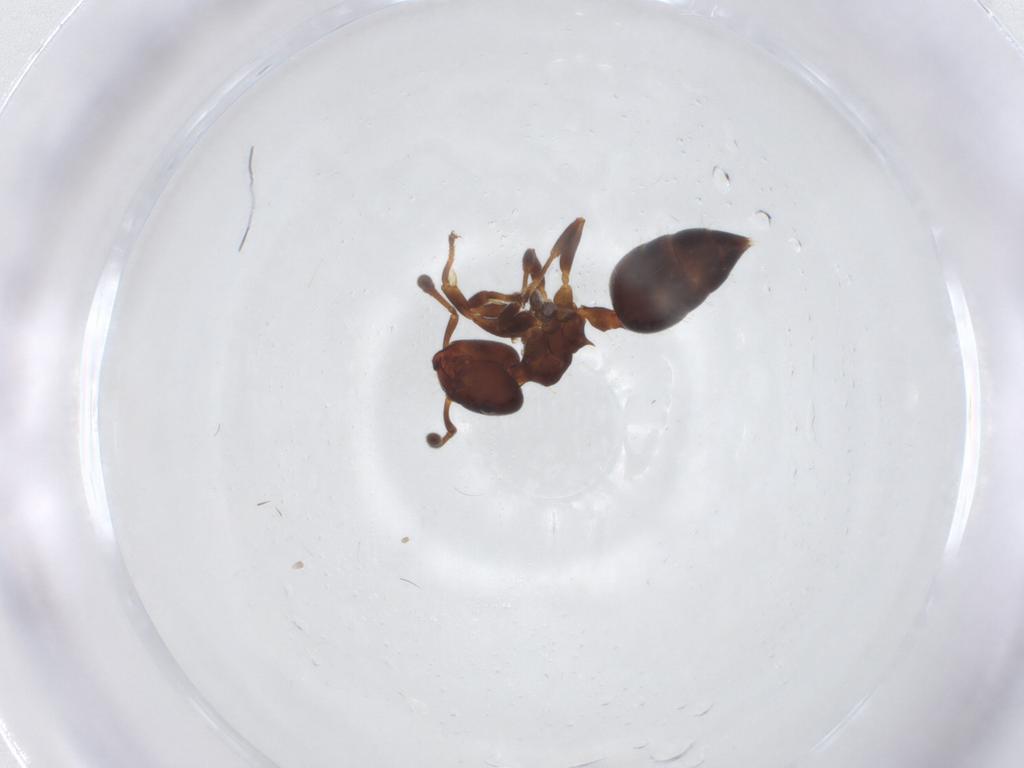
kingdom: Animalia
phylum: Arthropoda
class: Insecta
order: Hymenoptera
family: Formicidae
